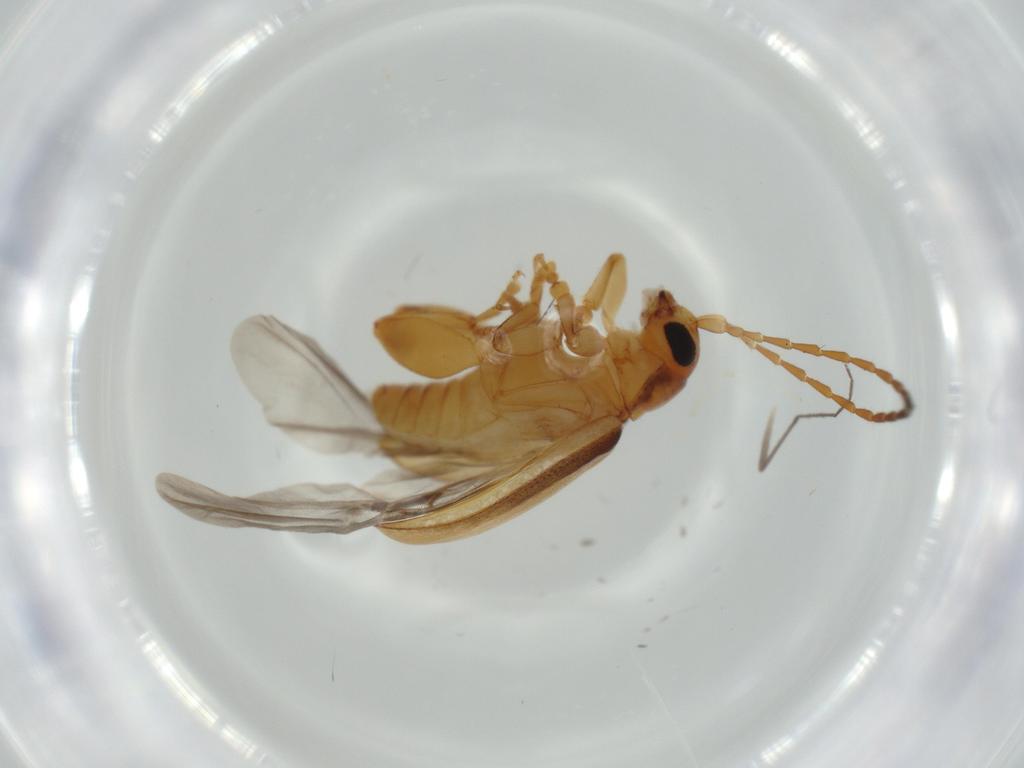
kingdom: Animalia
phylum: Arthropoda
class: Insecta
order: Coleoptera
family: Chrysomelidae
